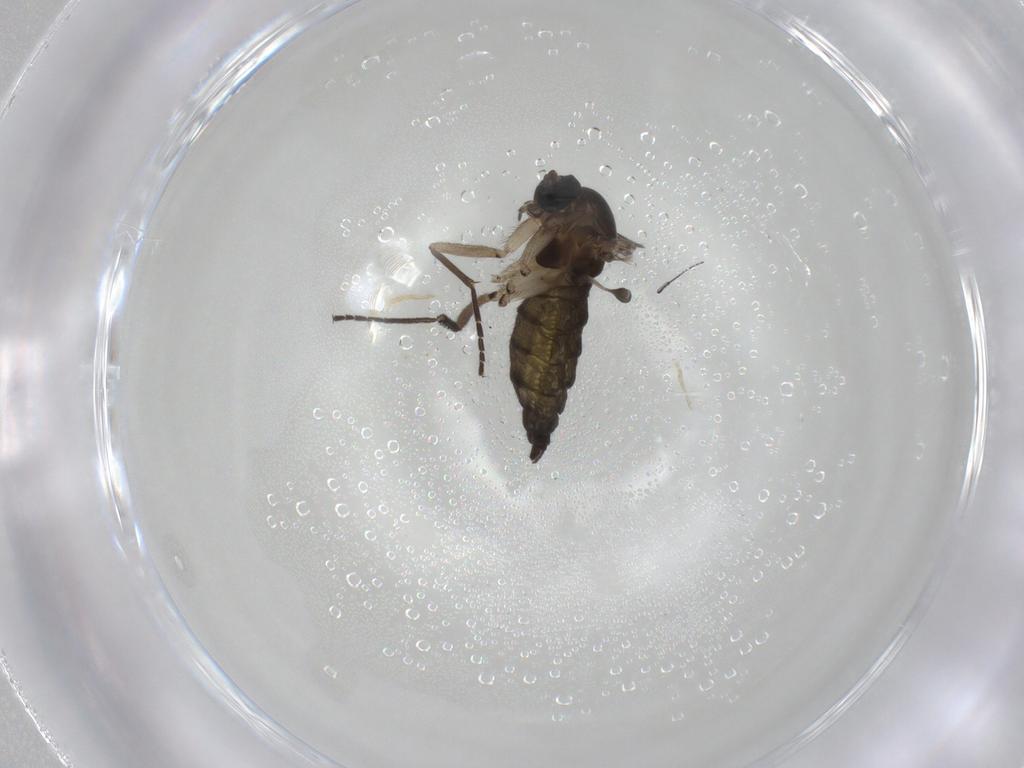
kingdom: Animalia
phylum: Arthropoda
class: Insecta
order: Diptera
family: Sciaridae
